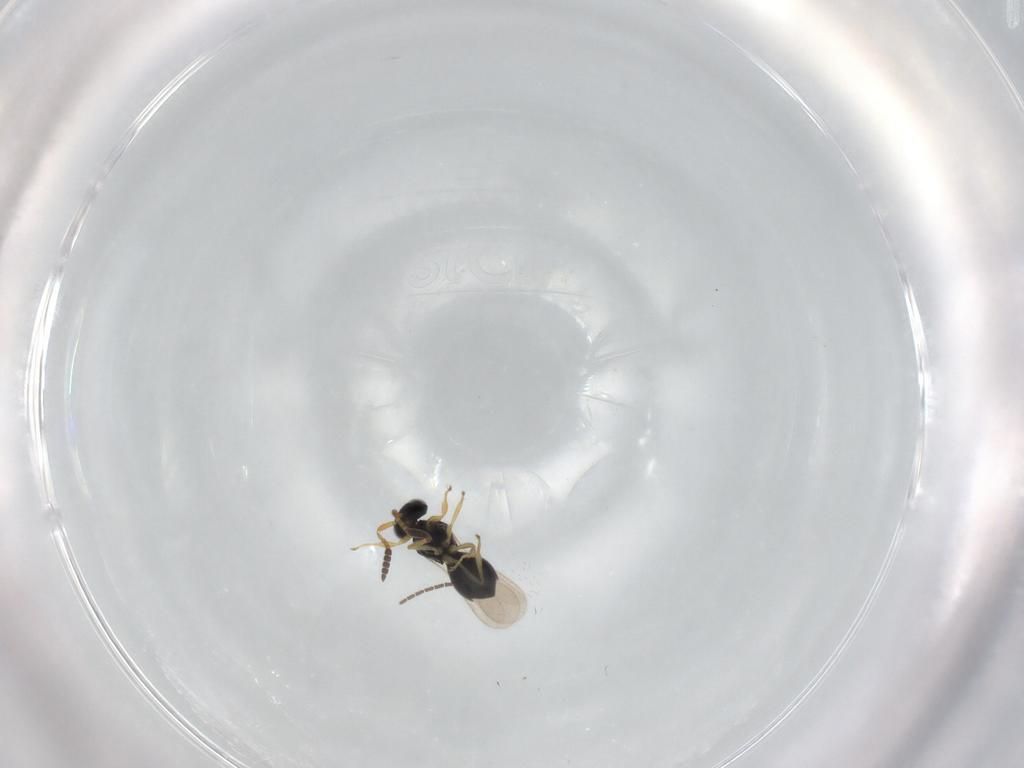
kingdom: Animalia
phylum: Arthropoda
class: Insecta
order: Hymenoptera
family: Scelionidae
